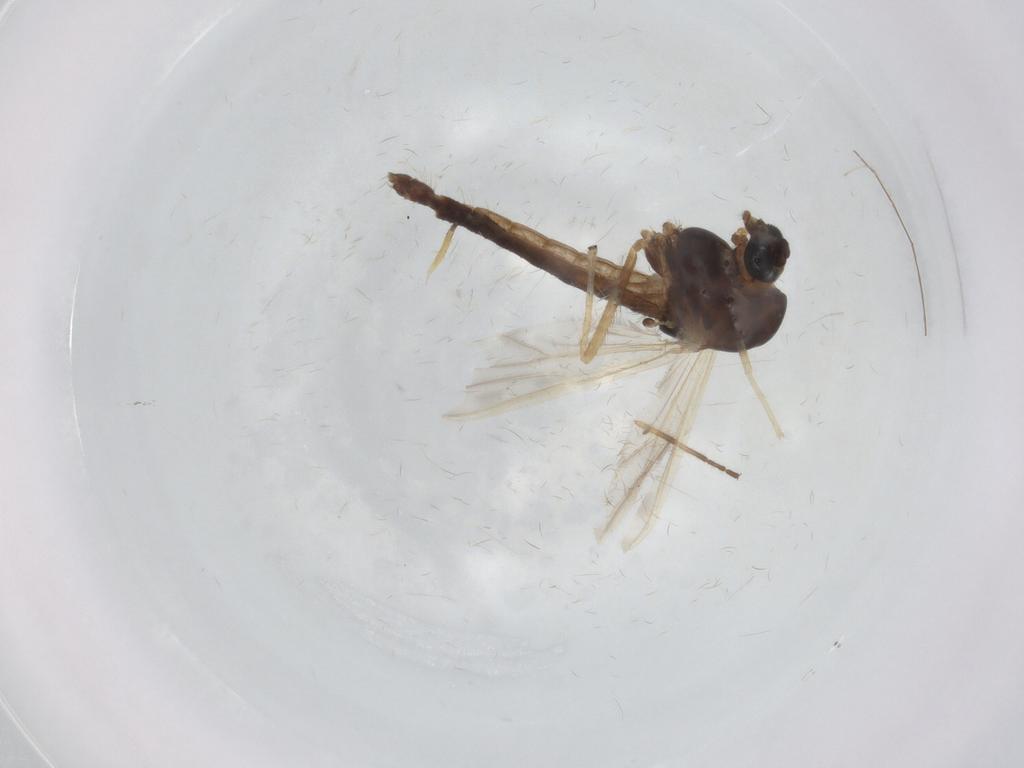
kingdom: Animalia
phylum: Arthropoda
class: Insecta
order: Diptera
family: Chironomidae
